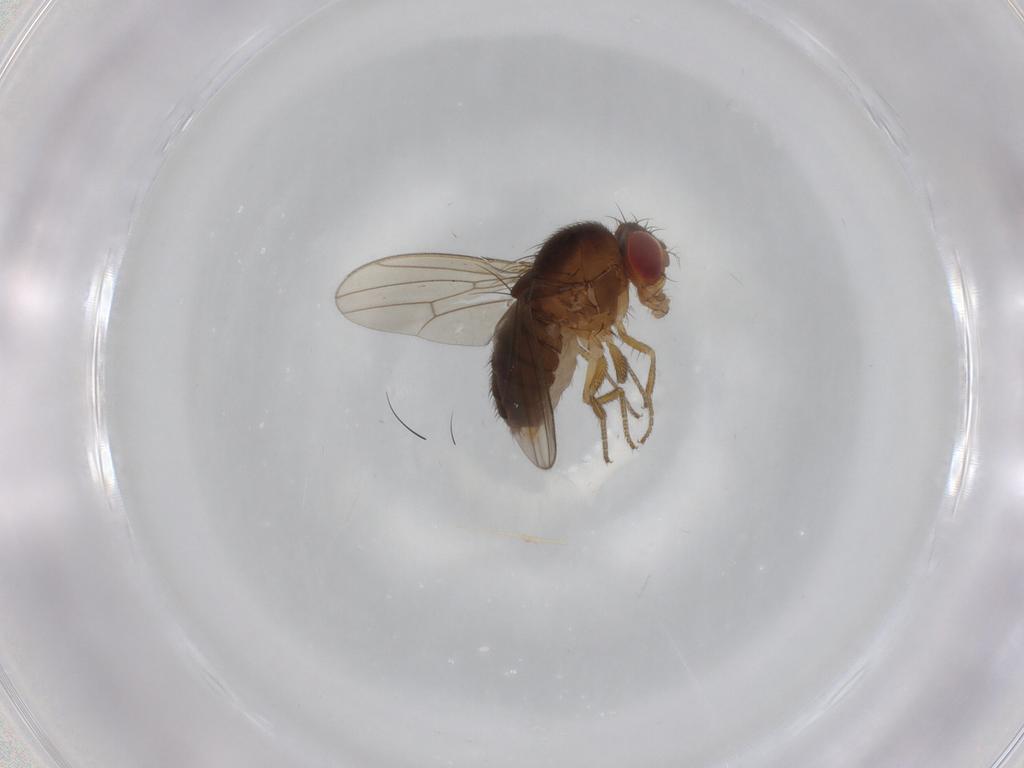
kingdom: Animalia
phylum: Arthropoda
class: Insecta
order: Diptera
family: Drosophilidae
